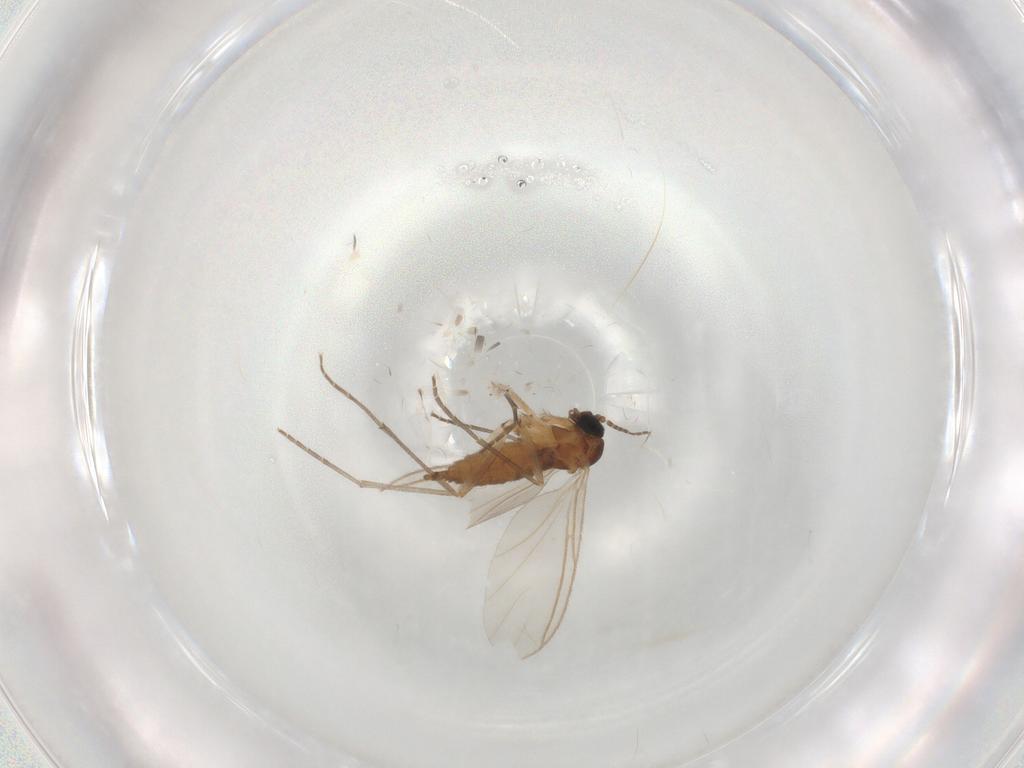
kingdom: Animalia
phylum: Arthropoda
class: Insecta
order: Diptera
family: Sciaridae
